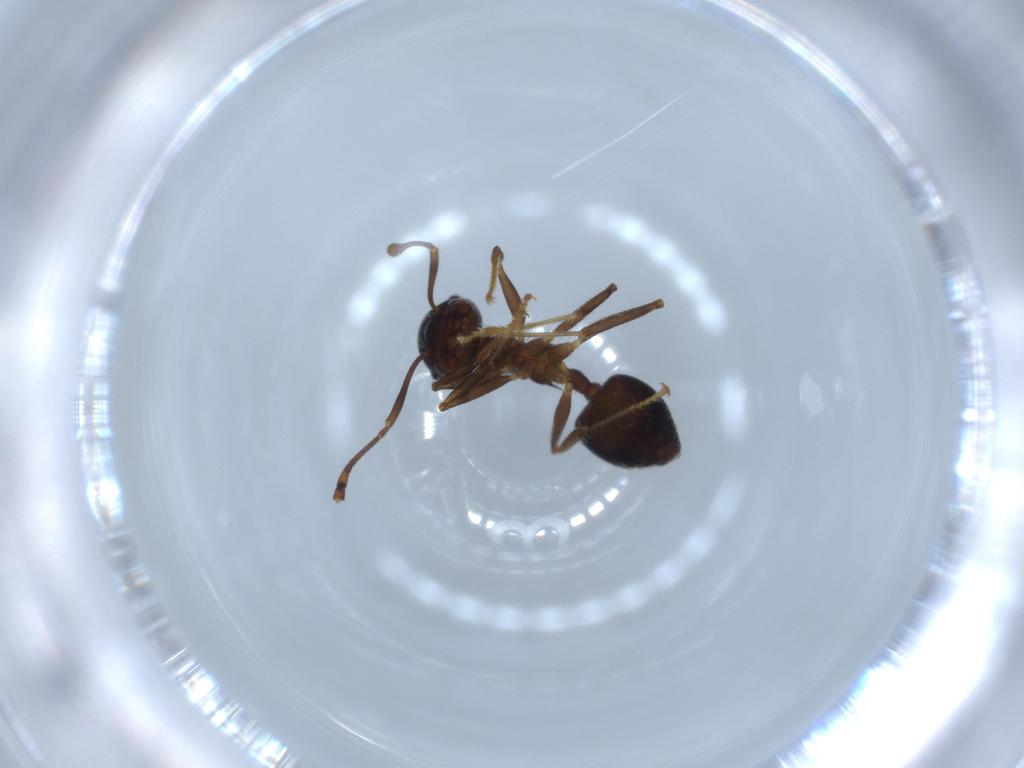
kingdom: Animalia
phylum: Arthropoda
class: Insecta
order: Hymenoptera
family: Formicidae
